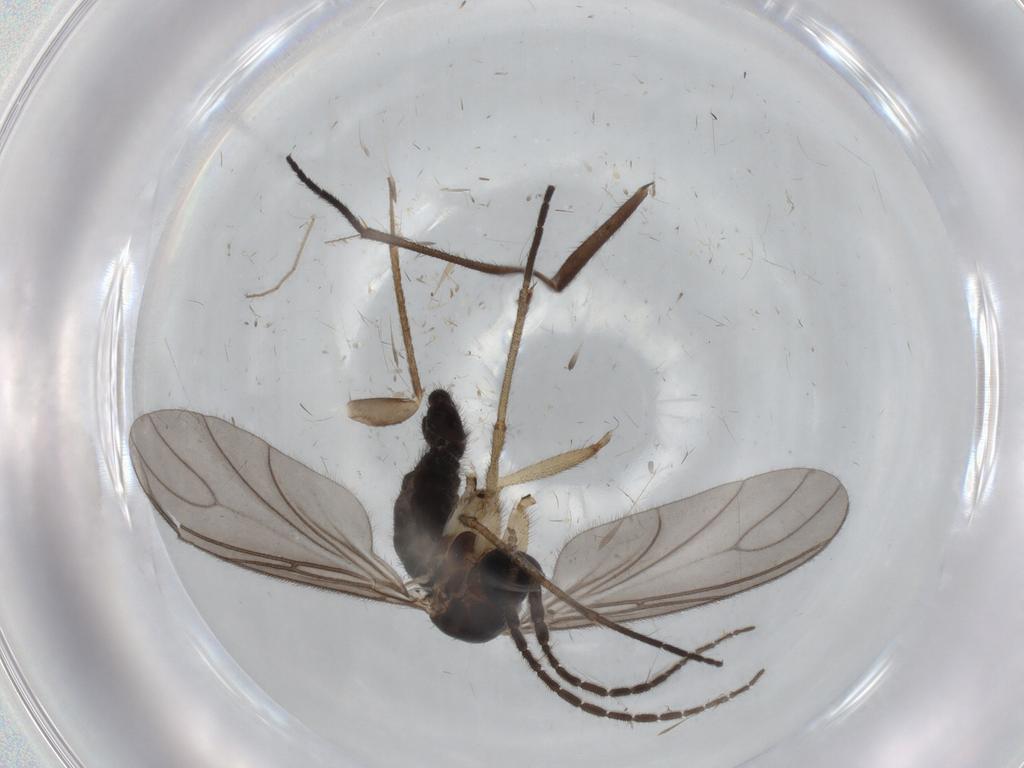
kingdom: Animalia
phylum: Arthropoda
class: Insecta
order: Diptera
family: Sciaridae
